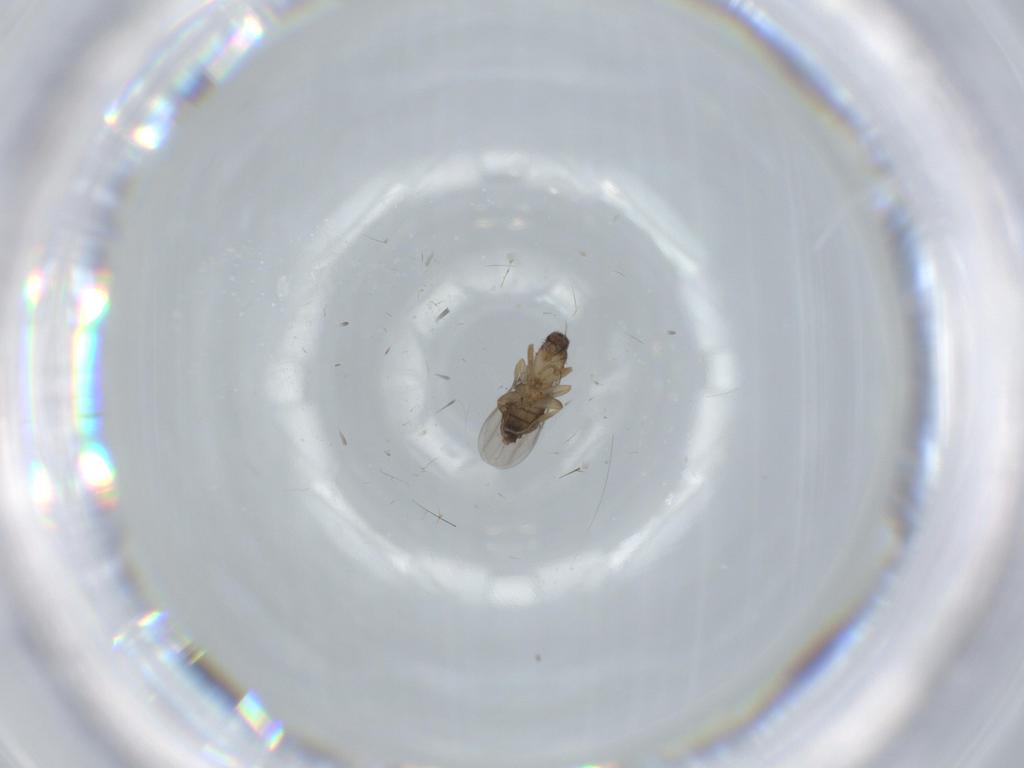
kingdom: Animalia
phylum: Arthropoda
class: Insecta
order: Diptera
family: Phoridae
